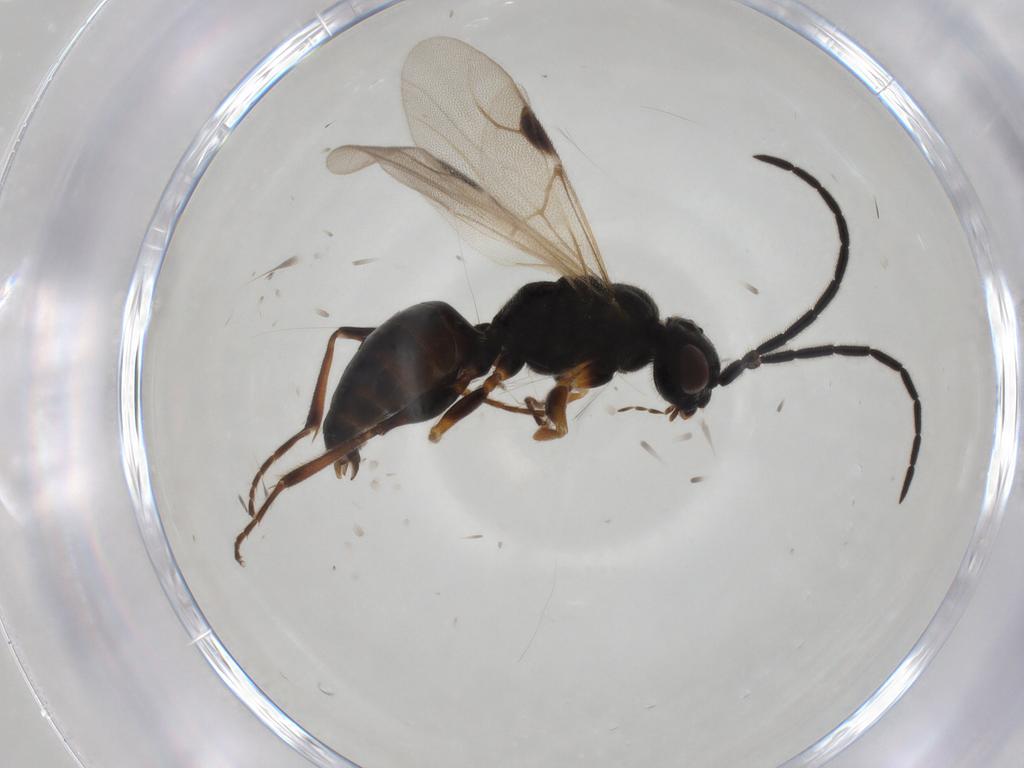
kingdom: Animalia
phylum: Arthropoda
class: Insecta
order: Hymenoptera
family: Dryinidae
